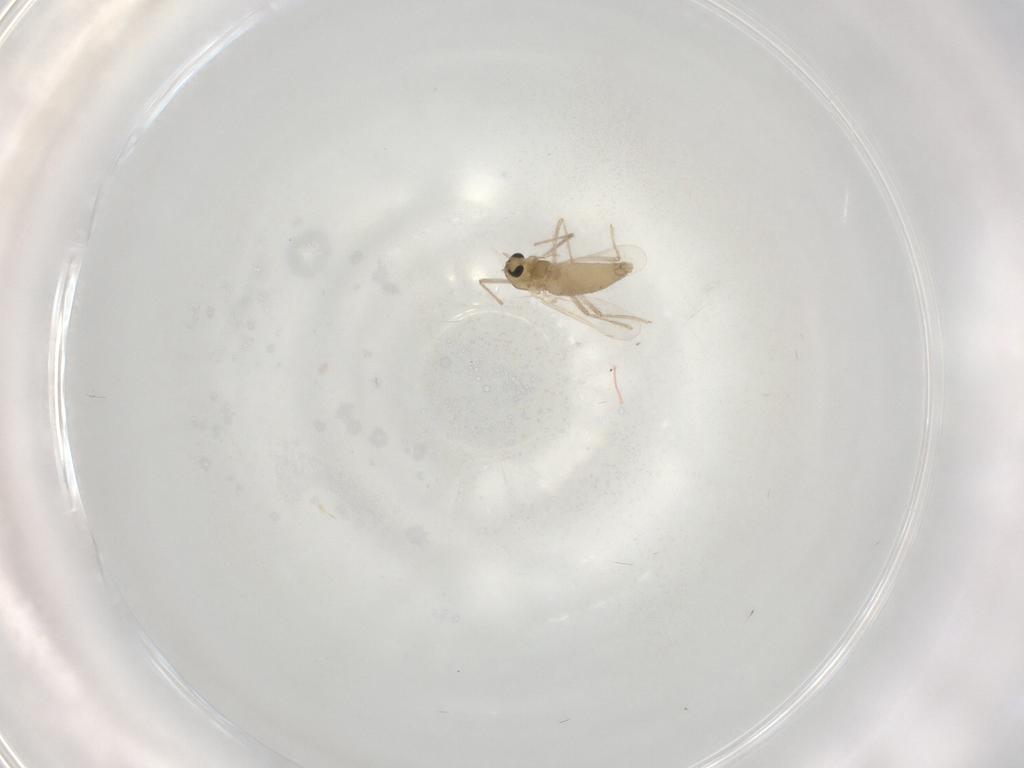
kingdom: Animalia
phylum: Arthropoda
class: Insecta
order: Diptera
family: Chironomidae
